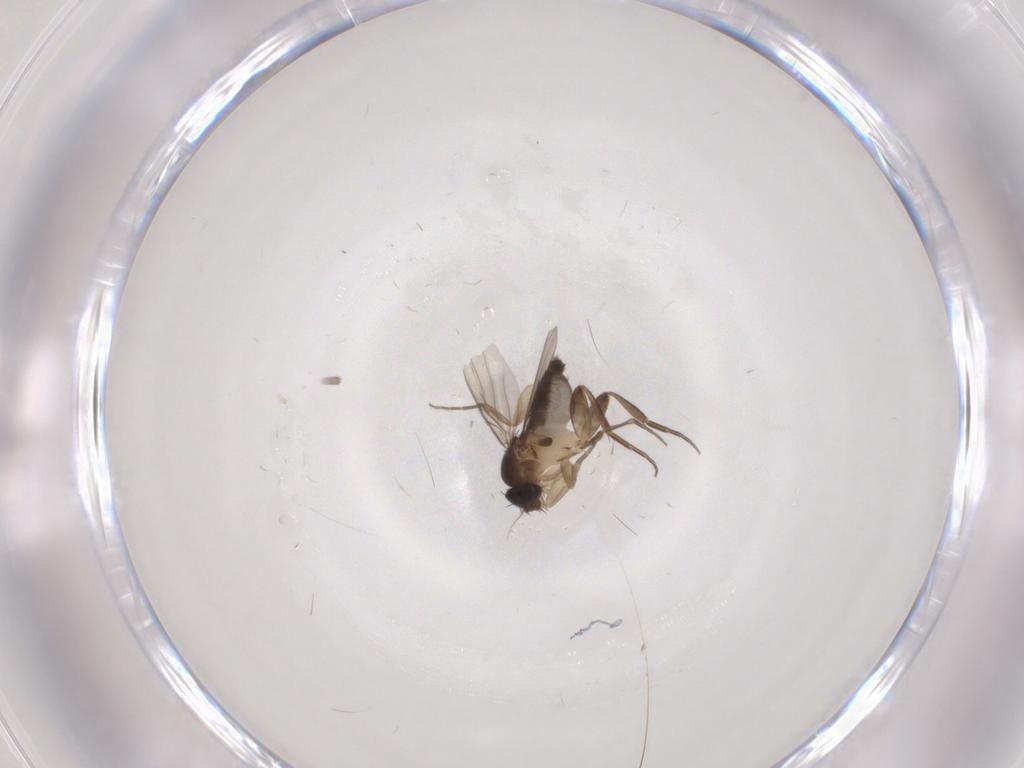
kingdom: Animalia
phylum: Arthropoda
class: Insecta
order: Diptera
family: Phoridae
